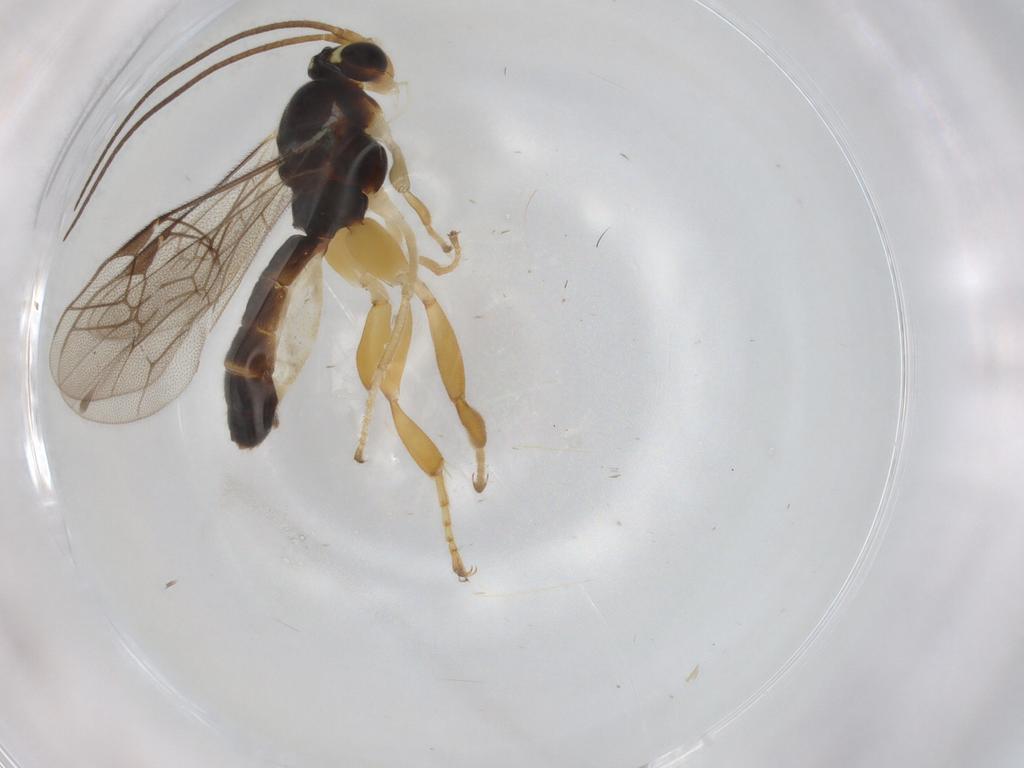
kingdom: Animalia
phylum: Arthropoda
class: Insecta
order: Hymenoptera
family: Ichneumonidae
